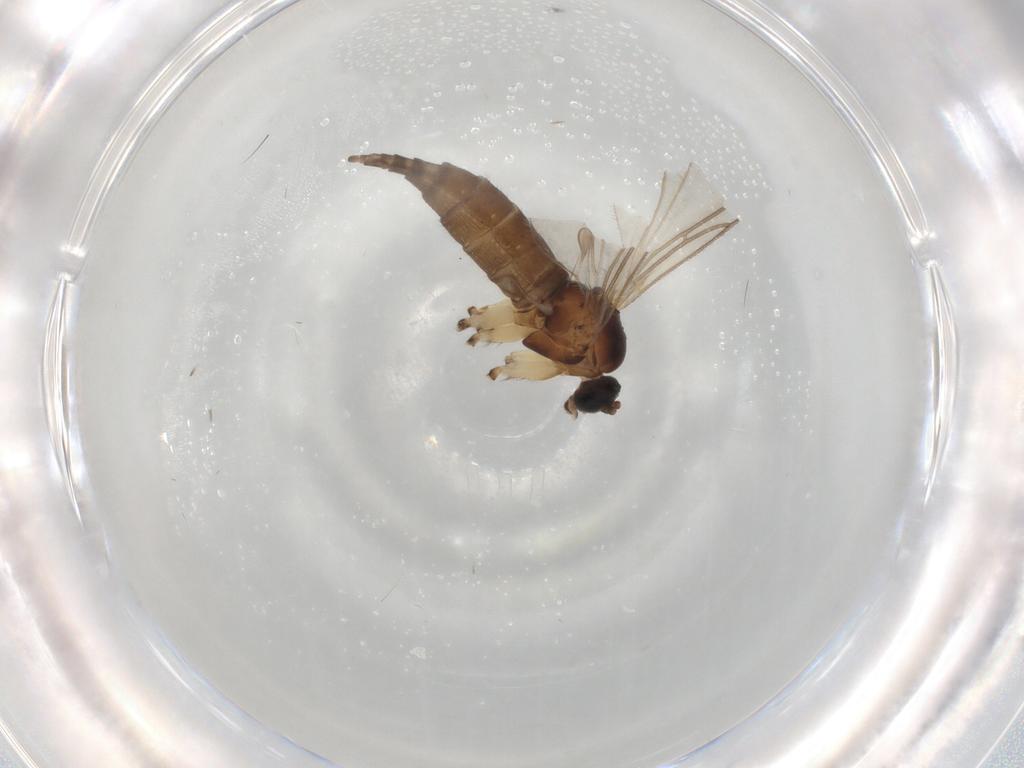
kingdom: Animalia
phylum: Arthropoda
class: Insecta
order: Diptera
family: Sciaridae
